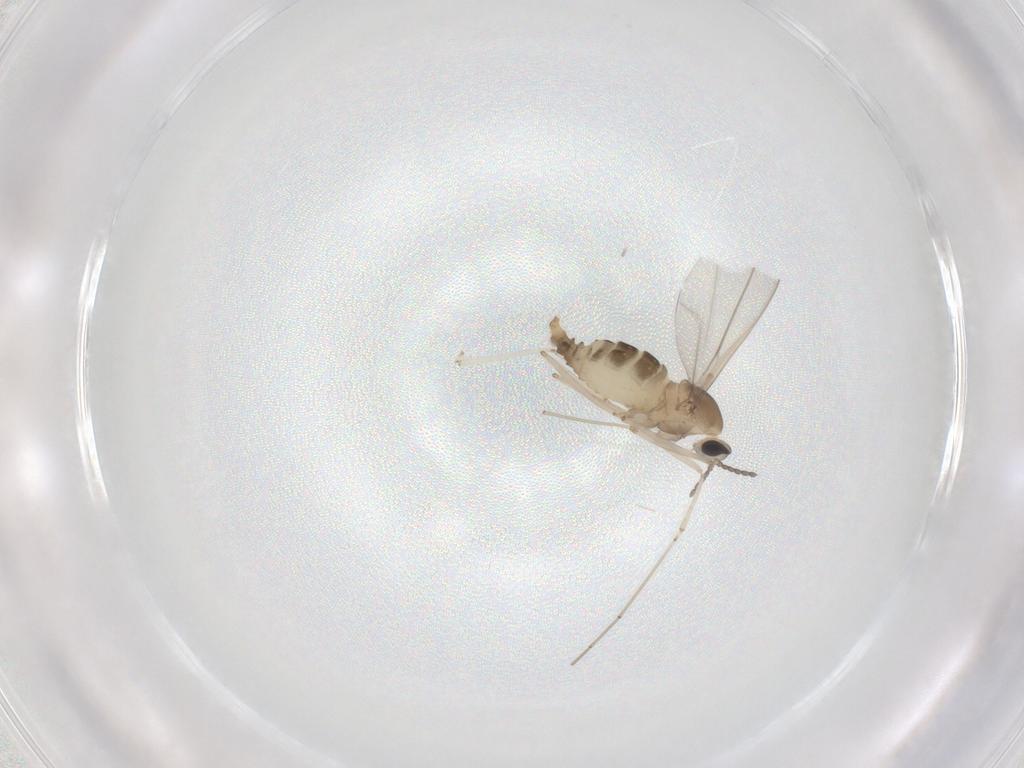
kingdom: Animalia
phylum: Arthropoda
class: Insecta
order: Diptera
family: Cecidomyiidae
